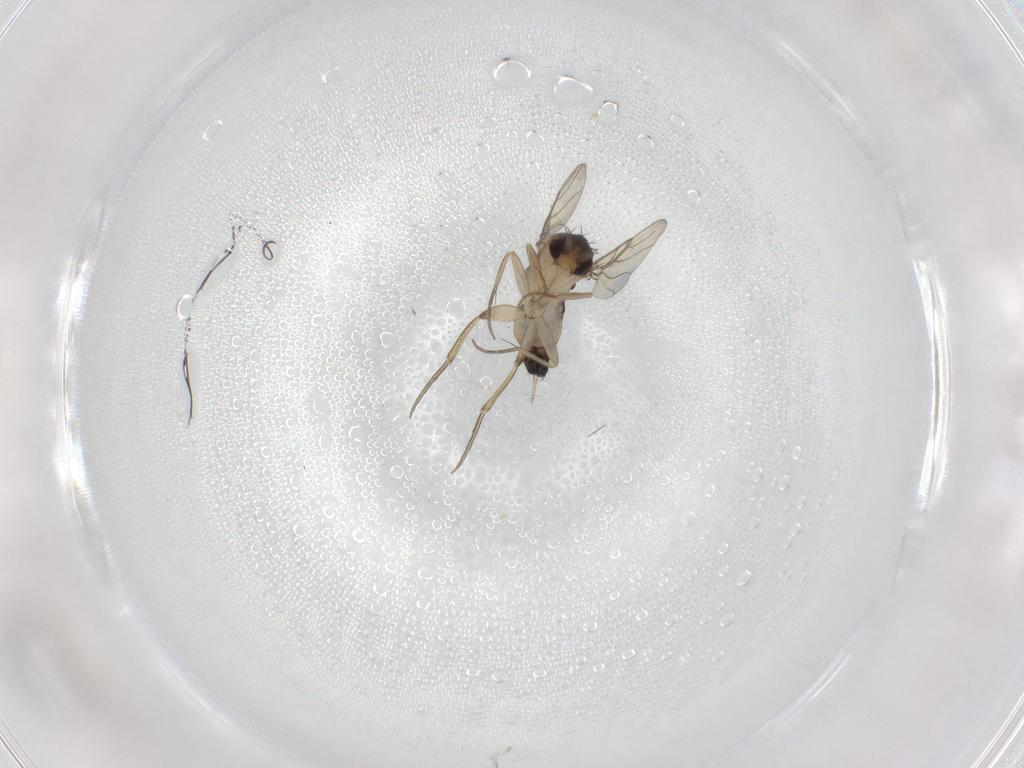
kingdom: Animalia
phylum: Arthropoda
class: Insecta
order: Diptera
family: Phoridae
